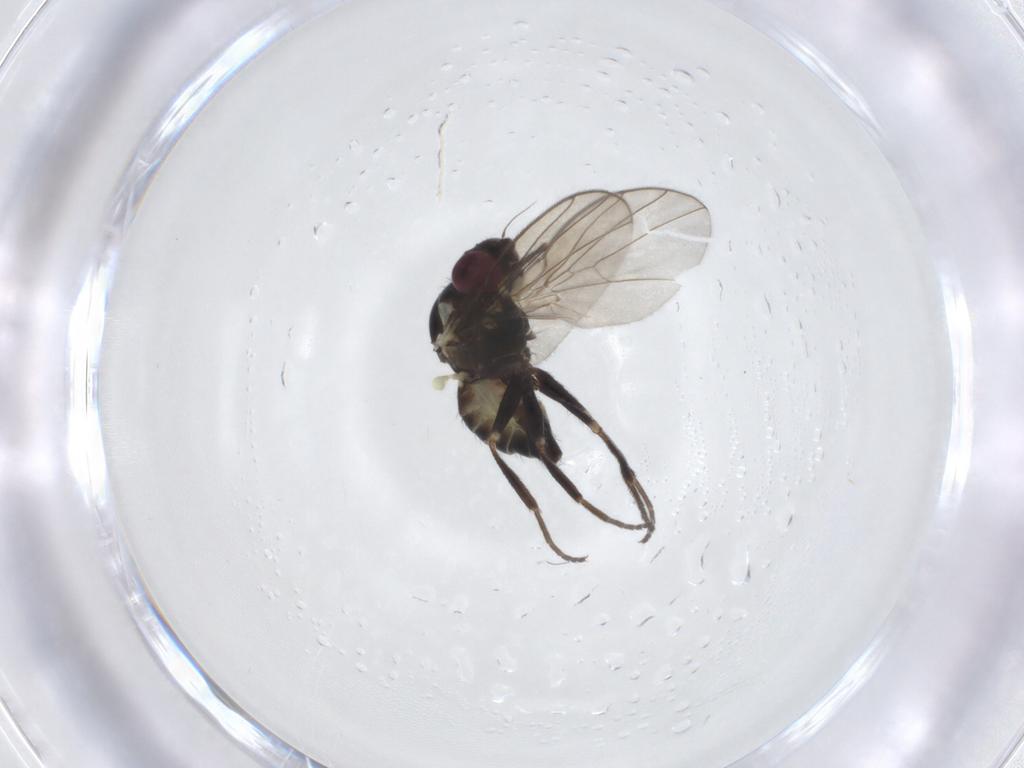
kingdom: Animalia
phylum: Arthropoda
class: Insecta
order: Diptera
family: Agromyzidae
